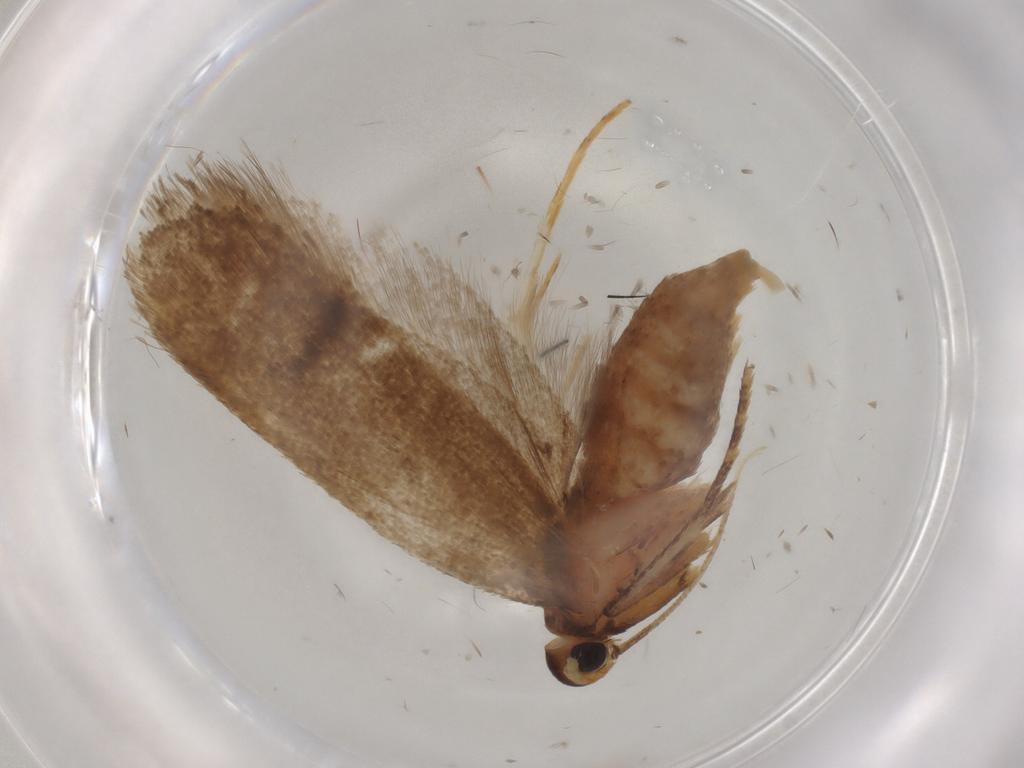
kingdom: Animalia
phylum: Arthropoda
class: Insecta
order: Lepidoptera
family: Lecithoceridae
